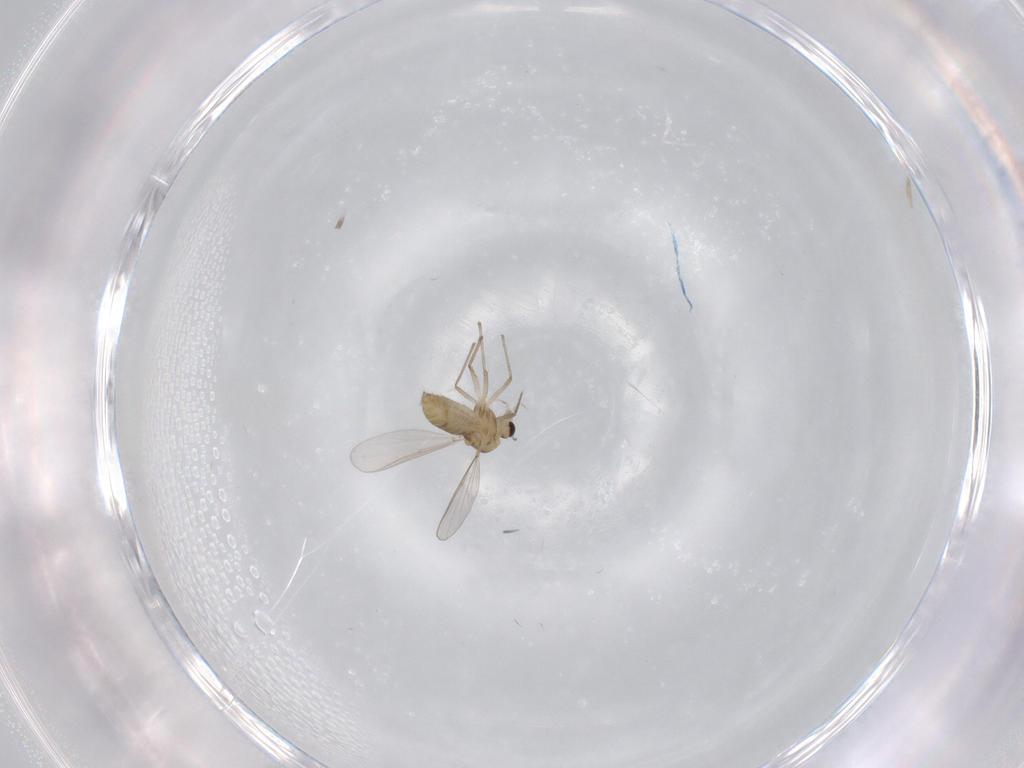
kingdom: Animalia
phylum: Arthropoda
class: Insecta
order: Diptera
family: Chironomidae
